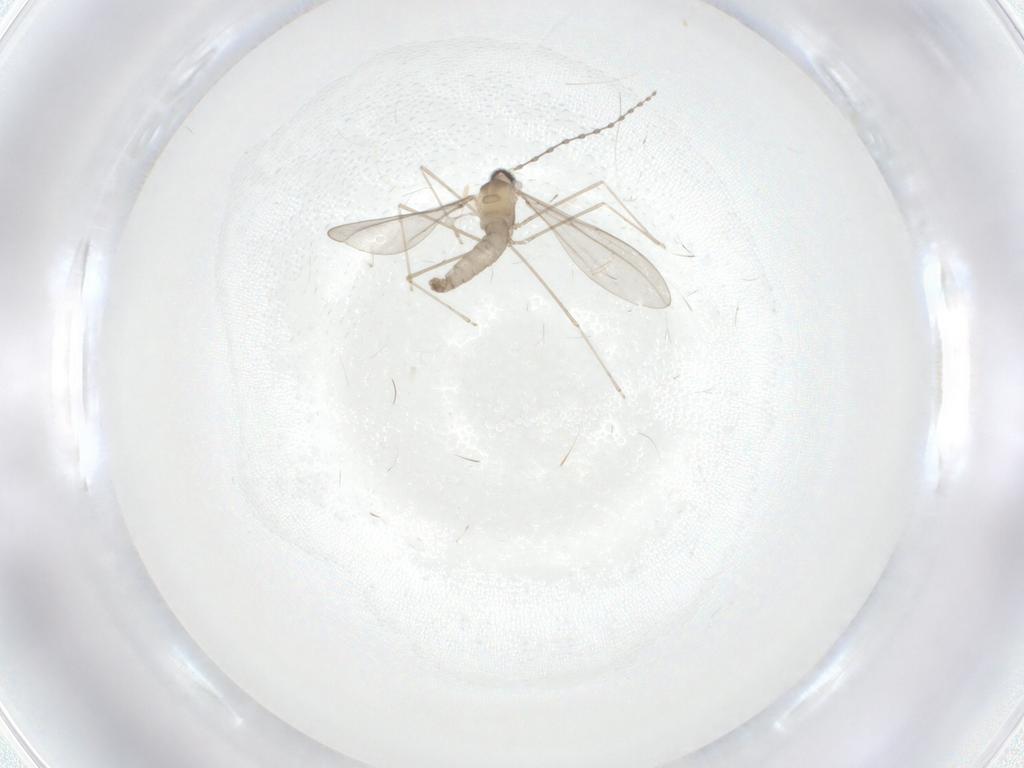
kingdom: Animalia
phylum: Arthropoda
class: Insecta
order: Diptera
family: Cecidomyiidae
